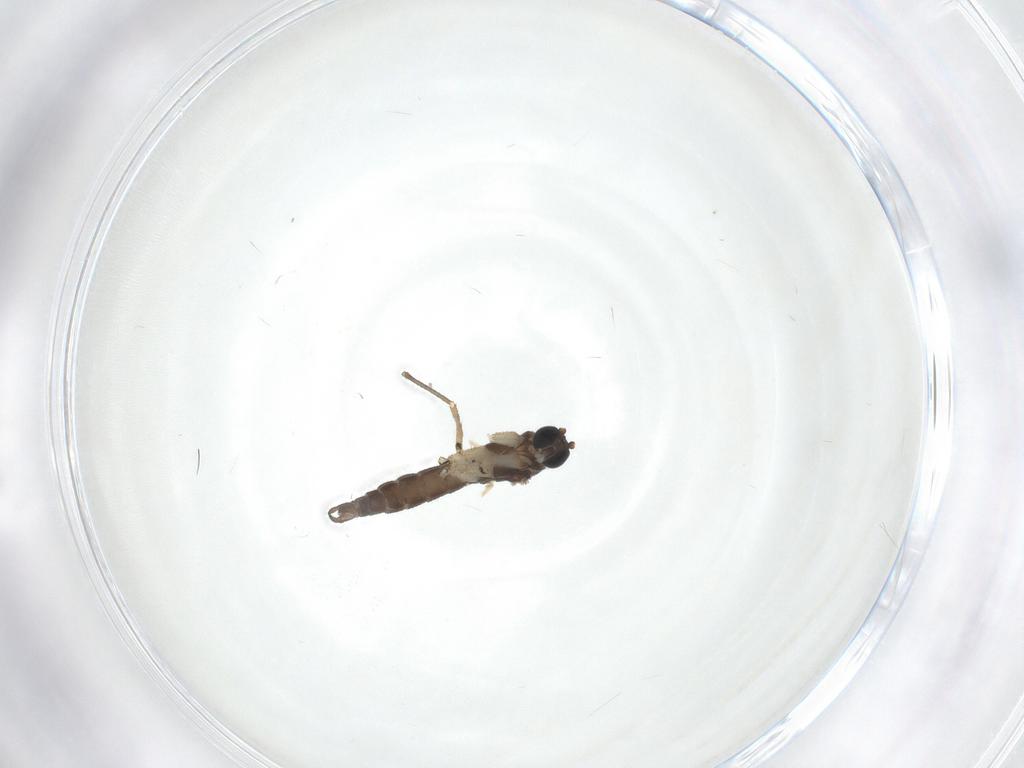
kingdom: Animalia
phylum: Arthropoda
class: Insecta
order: Diptera
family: Sciaridae
